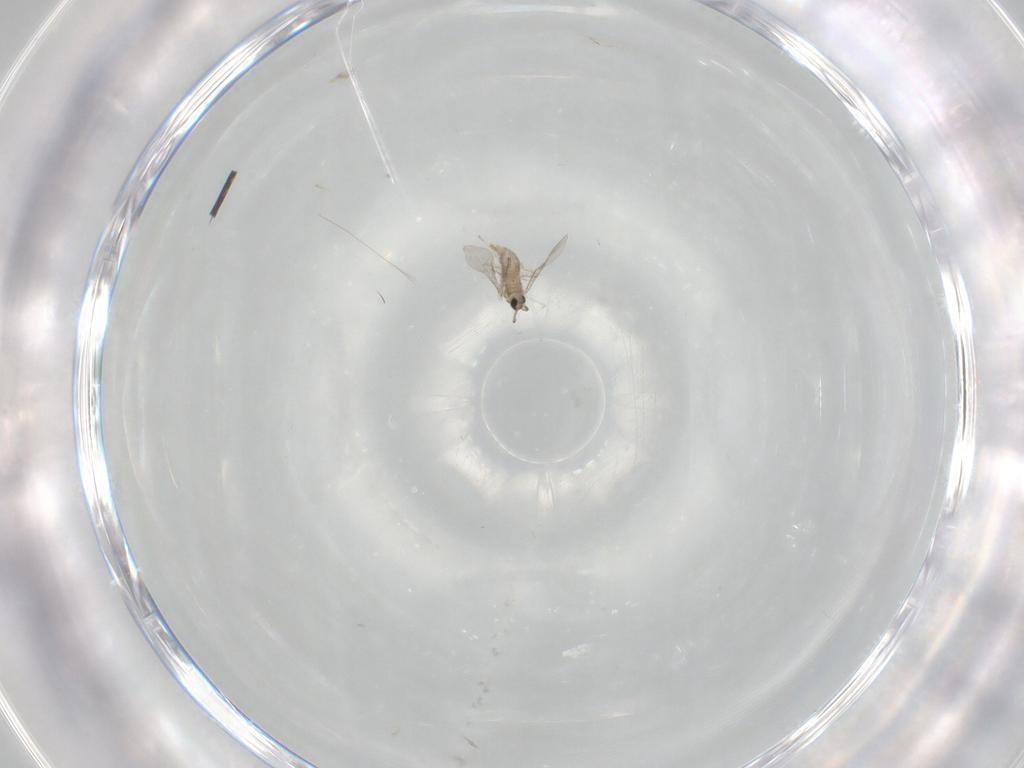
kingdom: Animalia
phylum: Arthropoda
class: Insecta
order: Diptera
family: Cecidomyiidae
